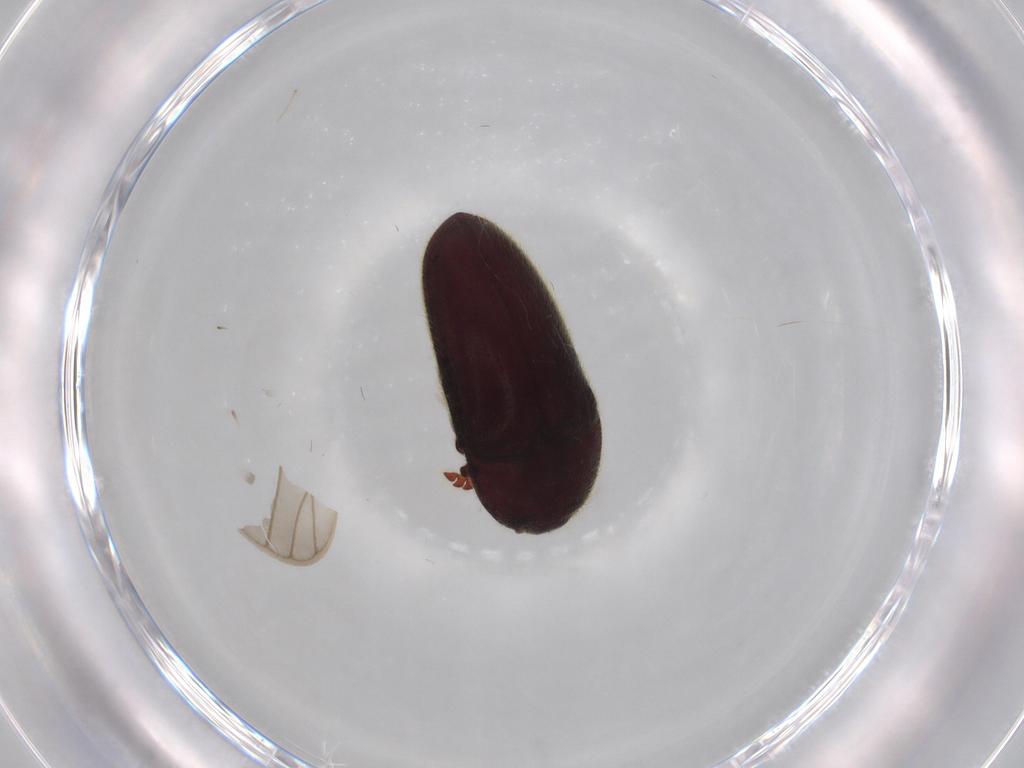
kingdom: Animalia
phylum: Arthropoda
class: Insecta
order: Coleoptera
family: Throscidae
